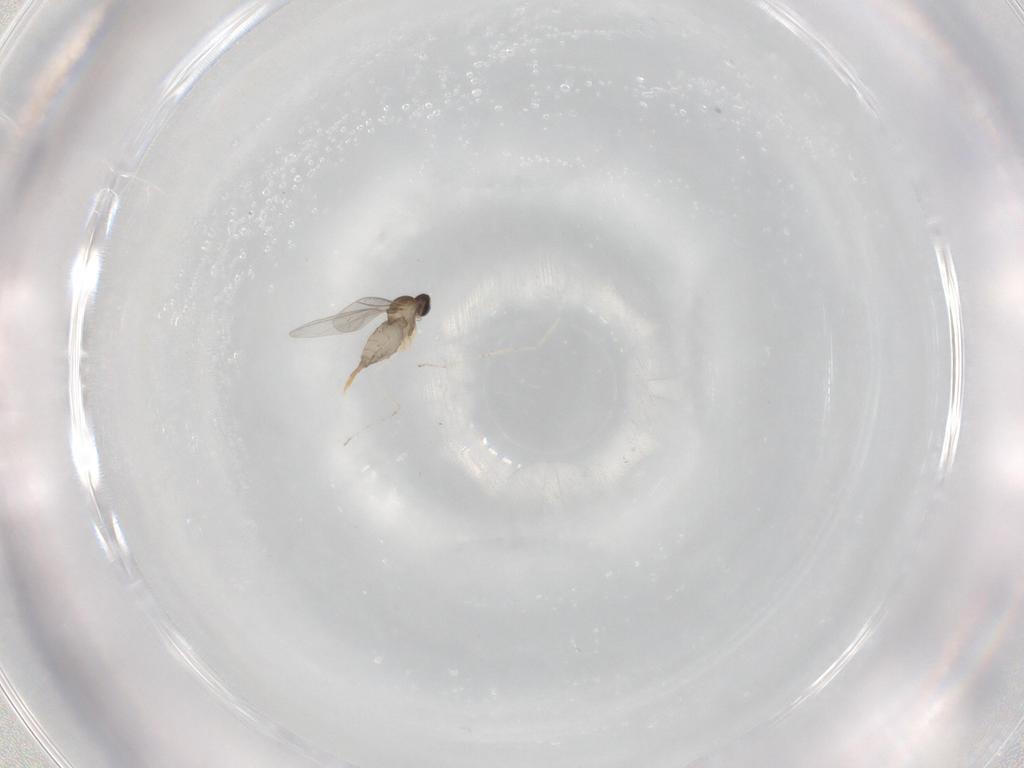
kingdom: Animalia
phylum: Arthropoda
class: Insecta
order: Diptera
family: Cecidomyiidae
